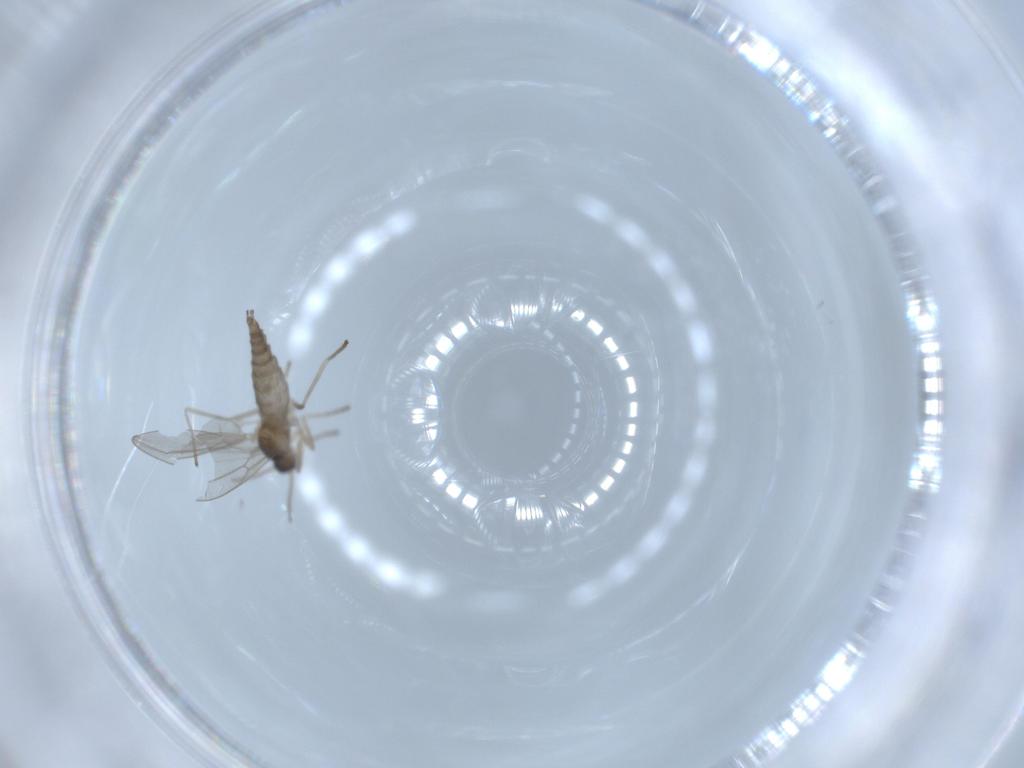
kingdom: Animalia
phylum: Arthropoda
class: Insecta
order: Diptera
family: Cecidomyiidae
